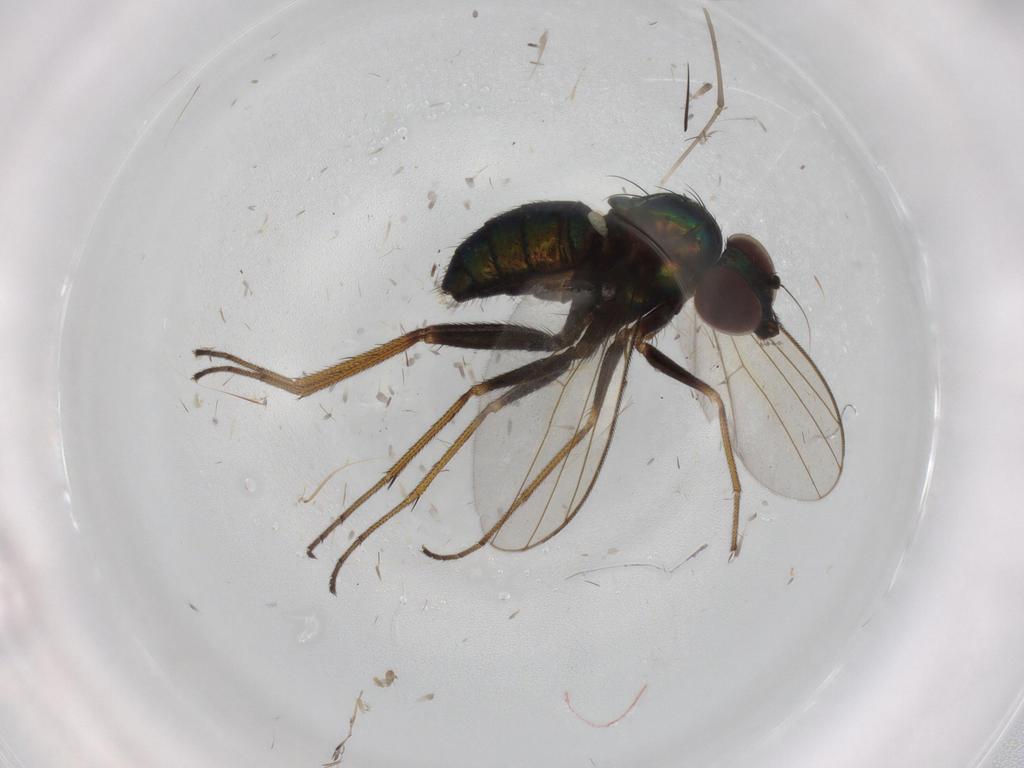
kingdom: Animalia
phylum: Arthropoda
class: Insecta
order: Diptera
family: Dolichopodidae
